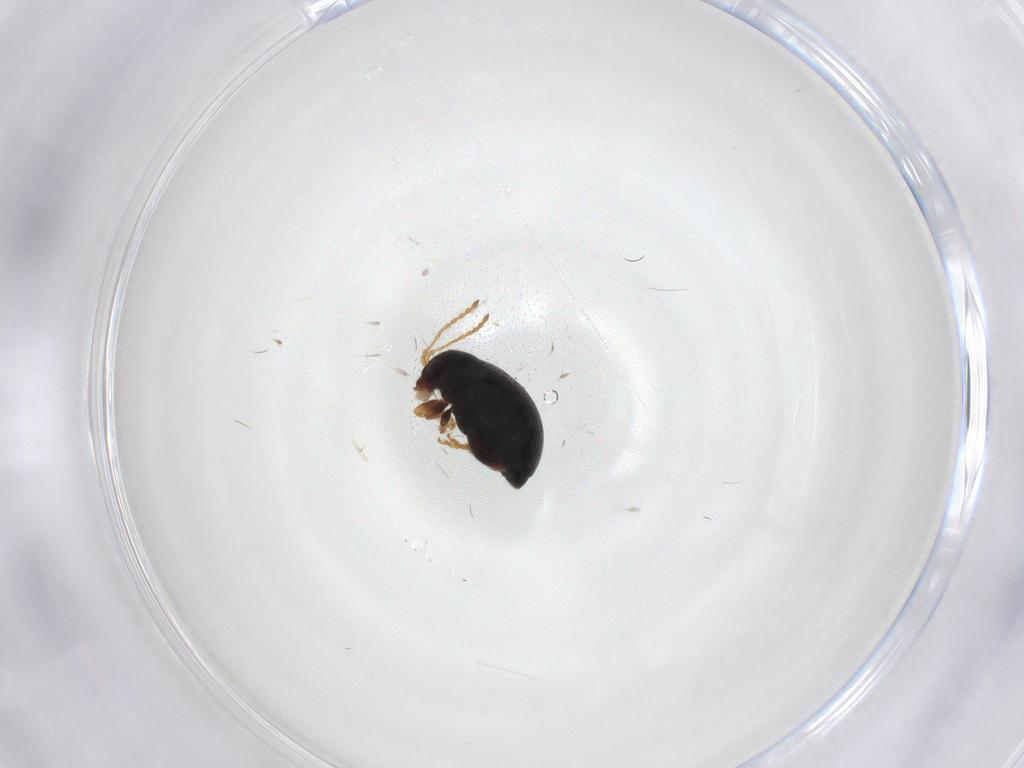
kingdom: Animalia
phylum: Arthropoda
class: Insecta
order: Coleoptera
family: Chrysomelidae
